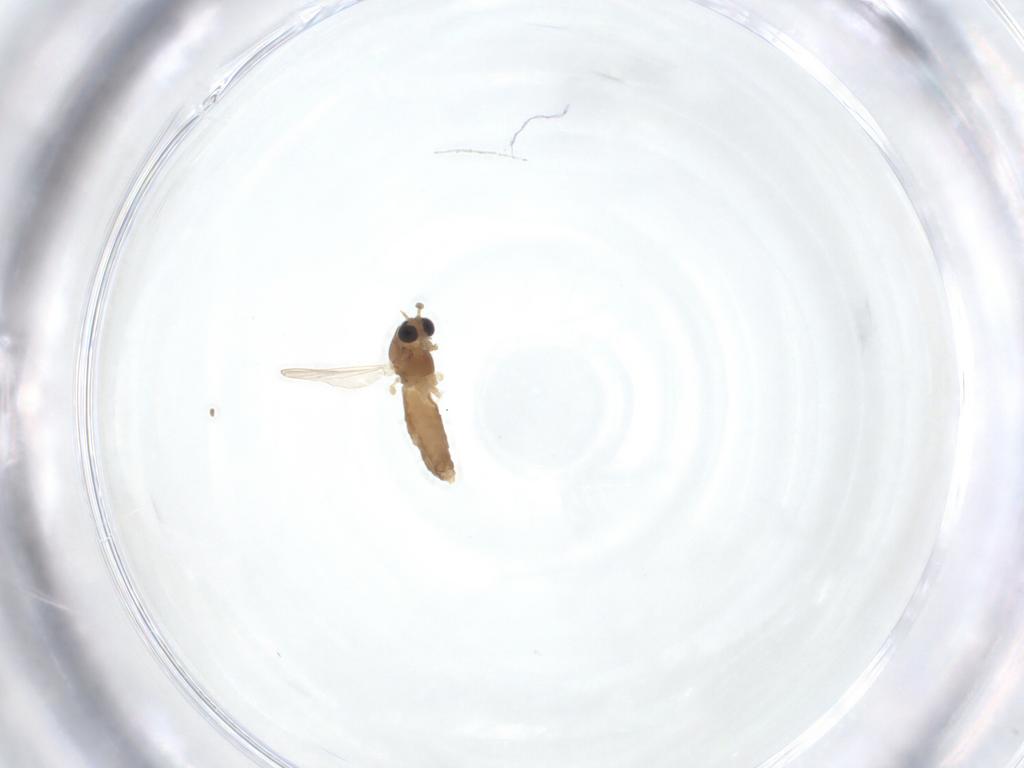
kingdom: Animalia
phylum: Arthropoda
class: Insecta
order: Diptera
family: Chironomidae
